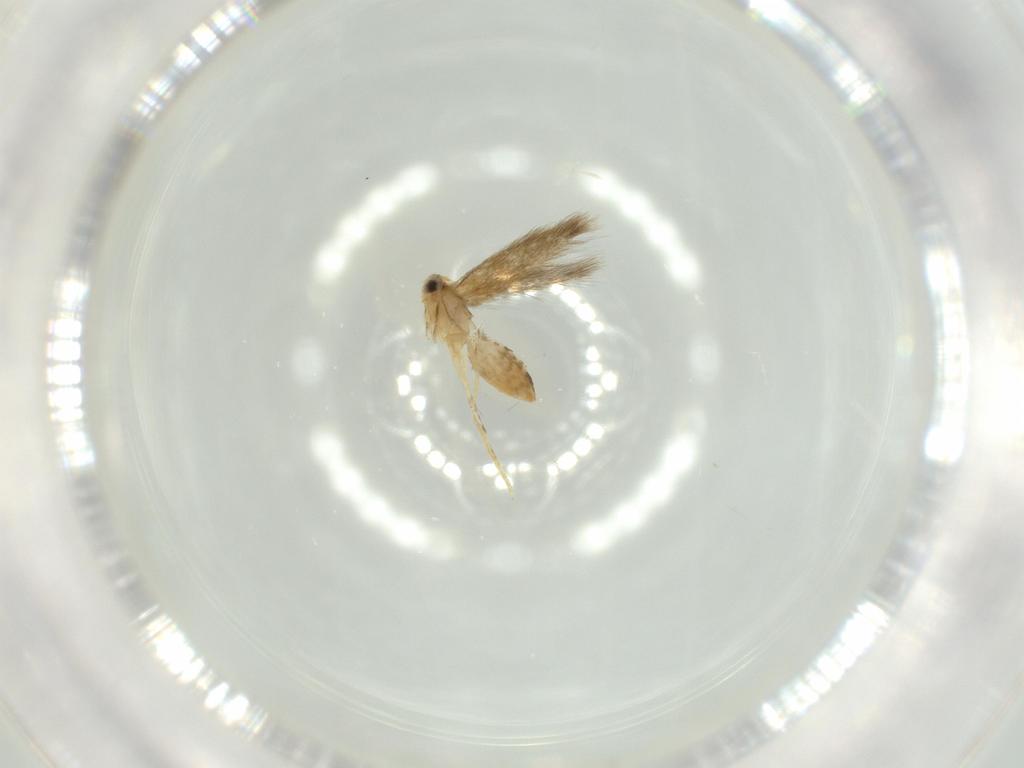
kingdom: Animalia
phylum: Arthropoda
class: Insecta
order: Lepidoptera
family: Nepticulidae
